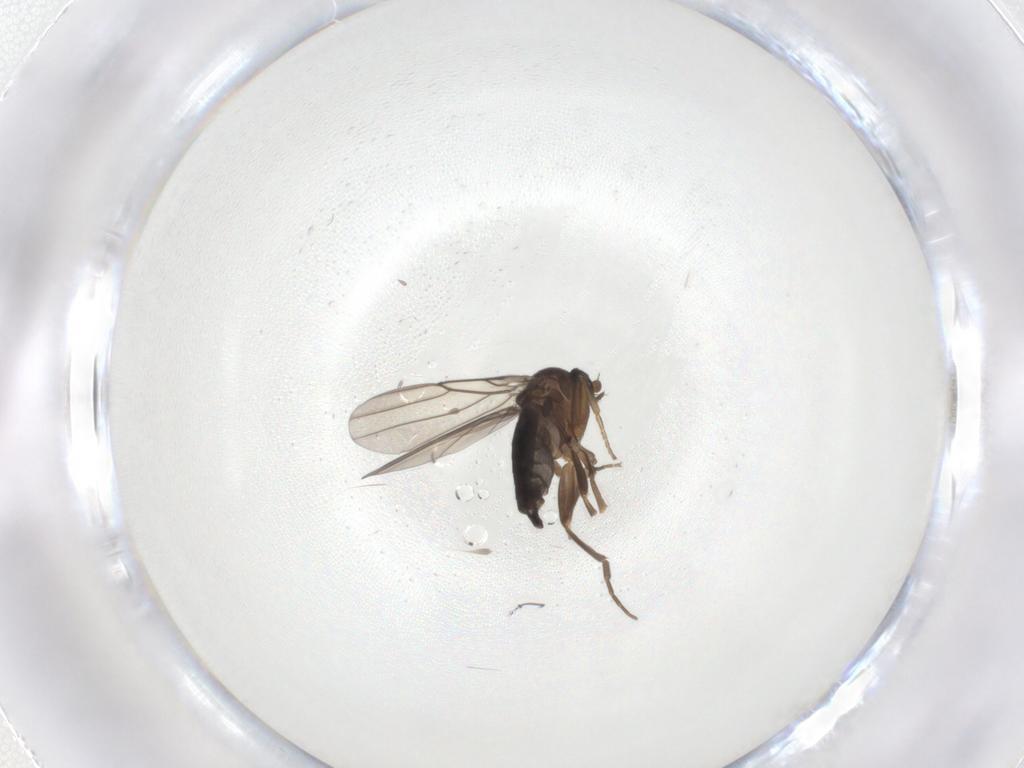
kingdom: Animalia
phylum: Arthropoda
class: Insecta
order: Diptera
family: Phoridae
